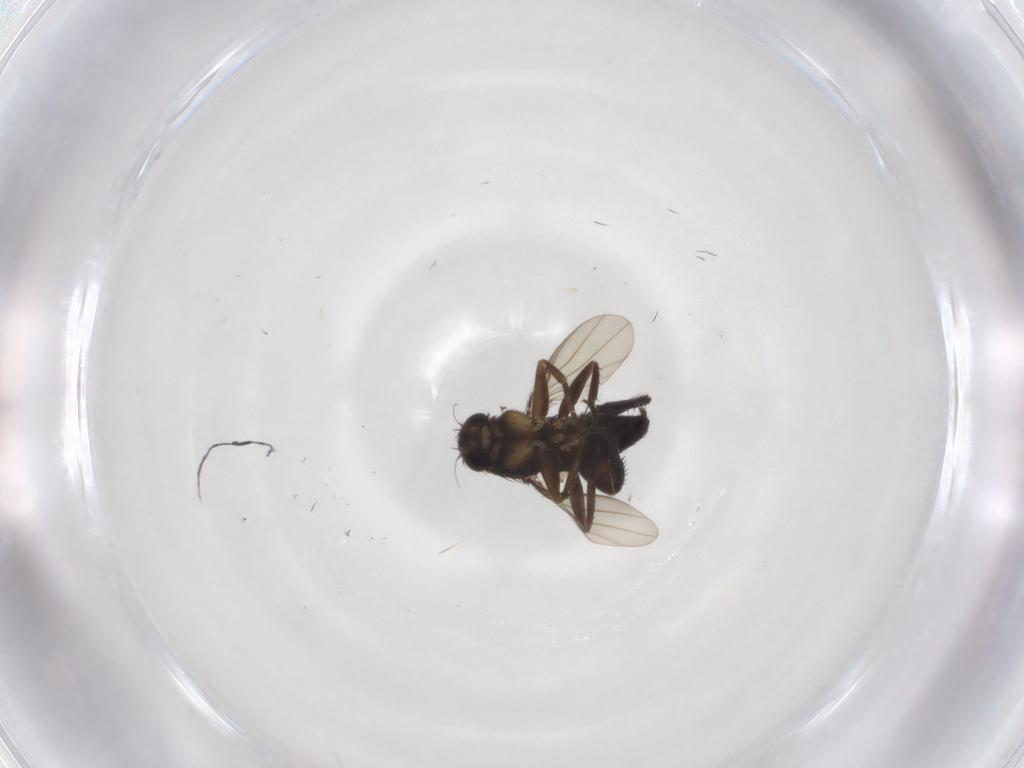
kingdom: Animalia
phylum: Arthropoda
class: Insecta
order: Diptera
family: Phoridae
